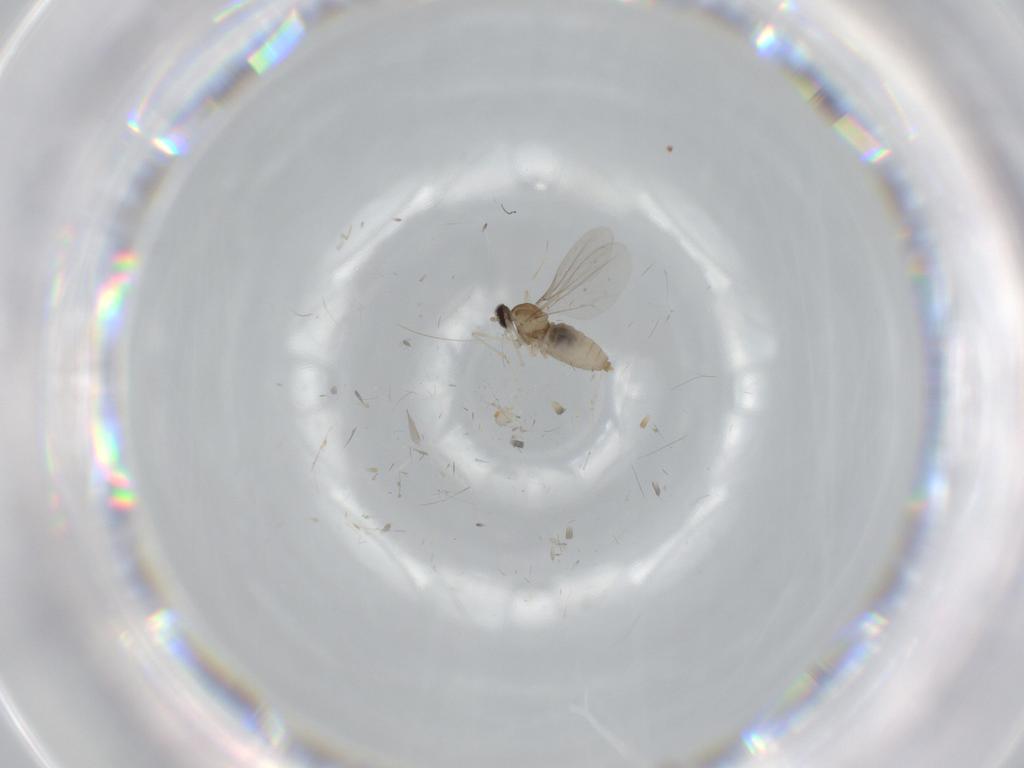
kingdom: Animalia
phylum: Arthropoda
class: Insecta
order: Diptera
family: Cecidomyiidae
